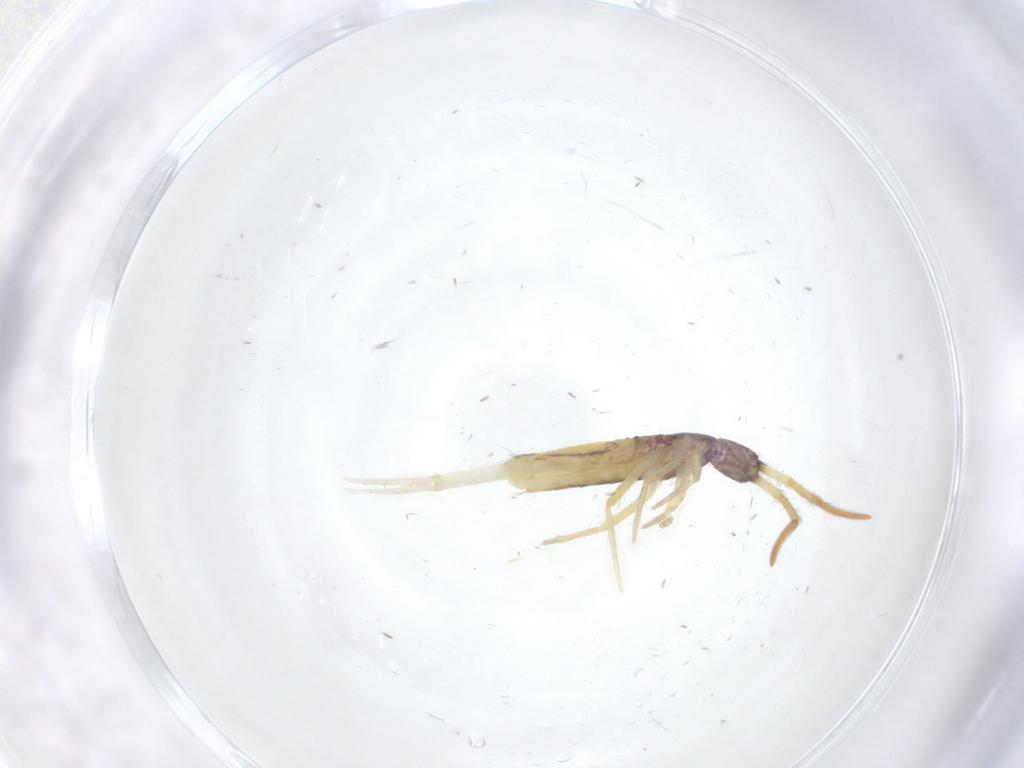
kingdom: Animalia
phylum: Arthropoda
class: Collembola
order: Entomobryomorpha
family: Entomobryidae
